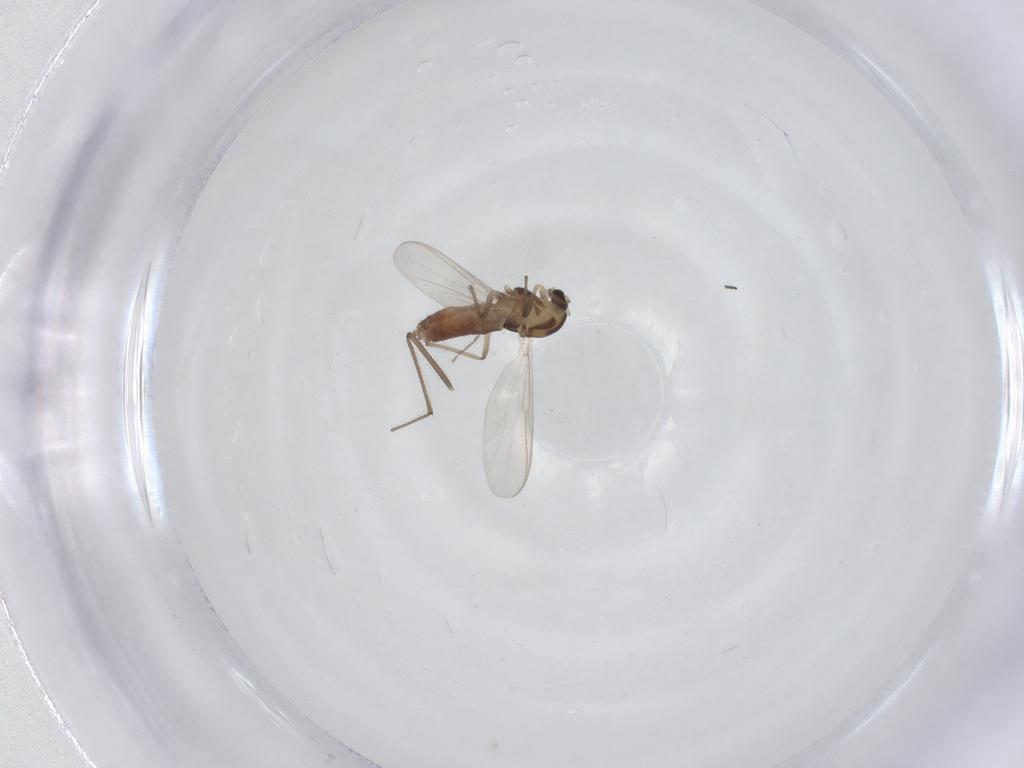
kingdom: Animalia
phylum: Arthropoda
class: Insecta
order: Diptera
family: Chironomidae
